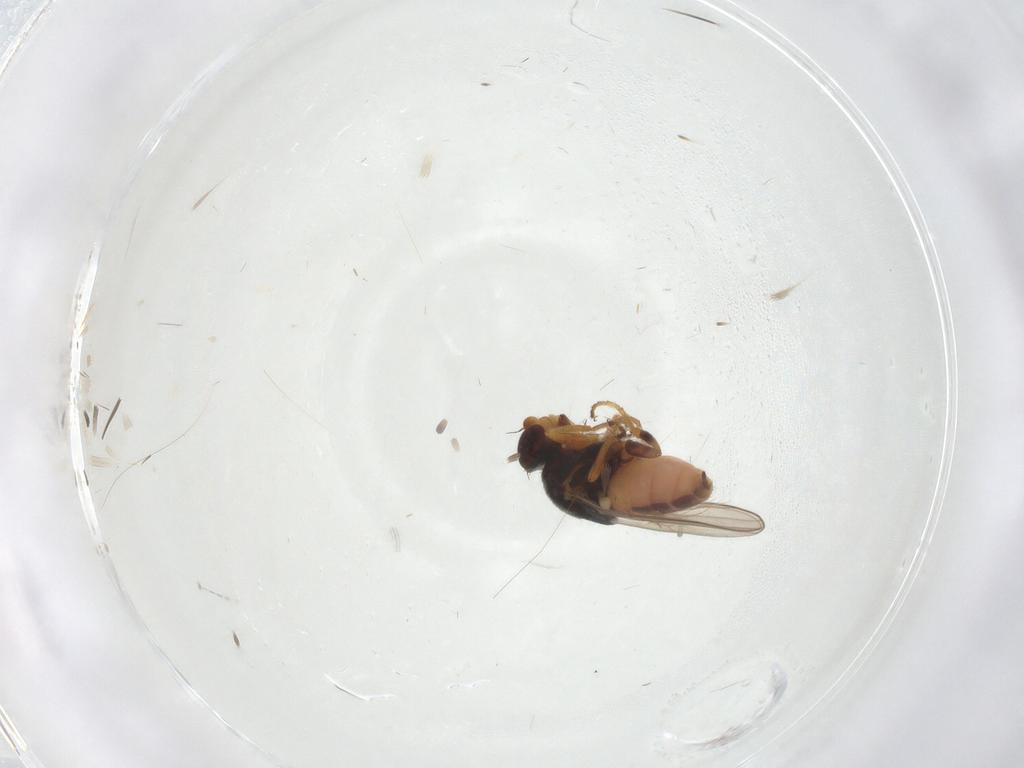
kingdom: Animalia
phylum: Arthropoda
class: Insecta
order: Diptera
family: Chloropidae
